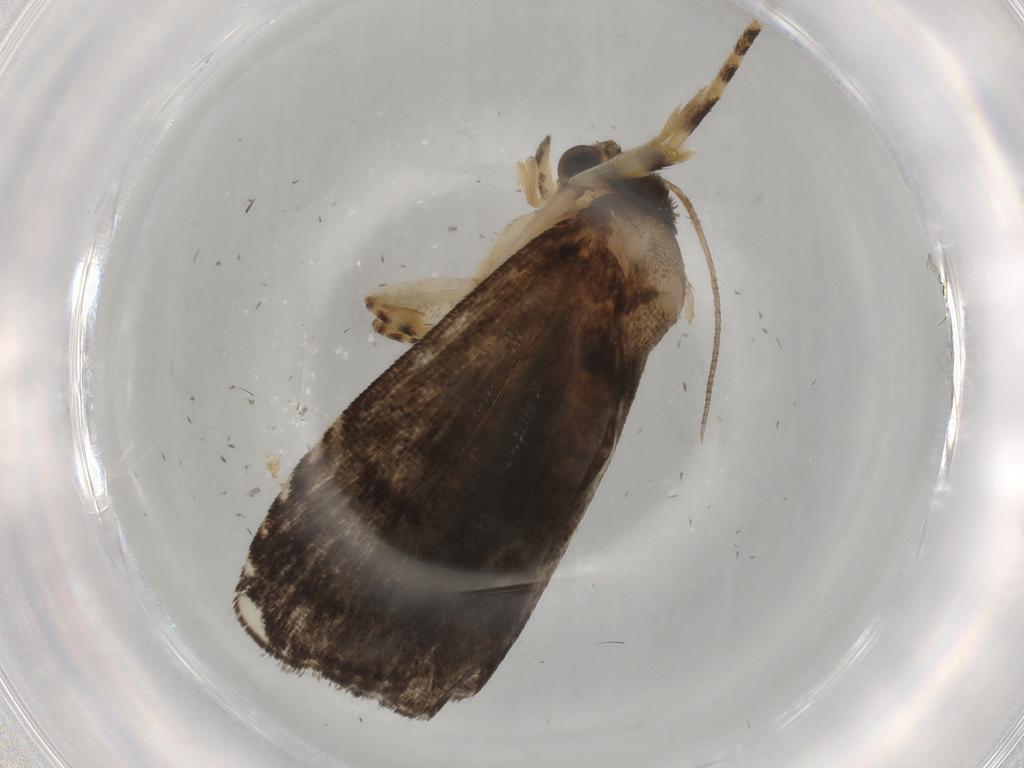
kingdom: Animalia
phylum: Arthropoda
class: Insecta
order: Lepidoptera
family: Immidae
